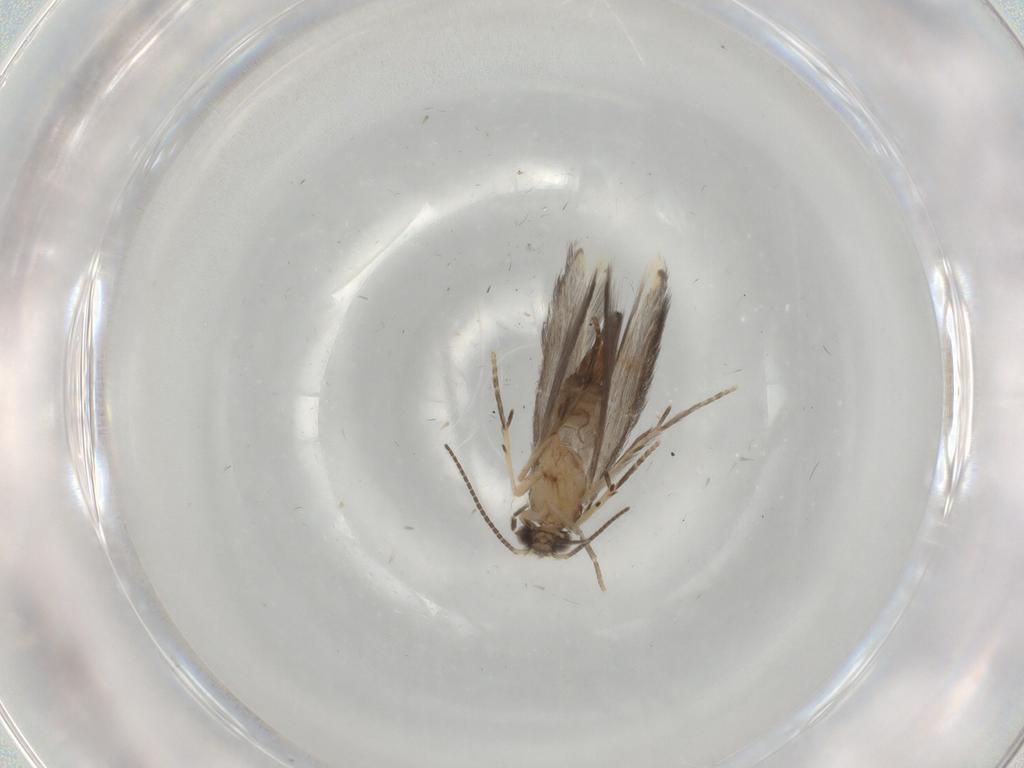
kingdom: Animalia
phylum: Arthropoda
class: Insecta
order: Trichoptera
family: Hydroptilidae
